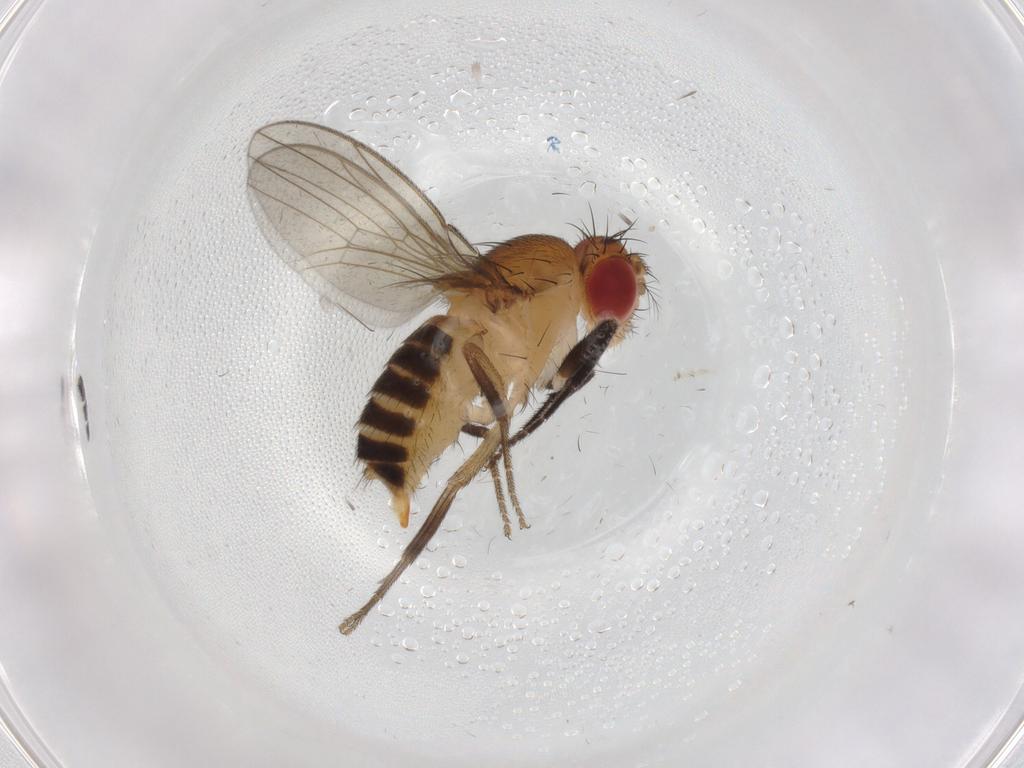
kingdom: Animalia
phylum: Arthropoda
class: Insecta
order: Diptera
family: Drosophilidae
